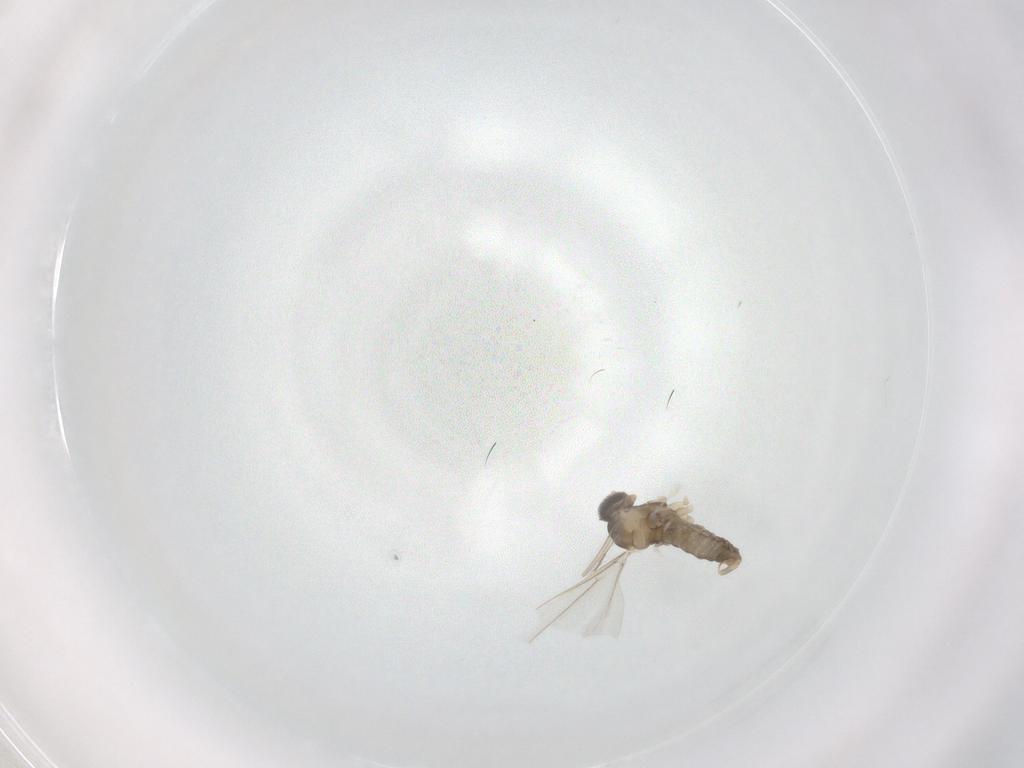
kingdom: Animalia
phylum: Arthropoda
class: Insecta
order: Diptera
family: Cecidomyiidae
